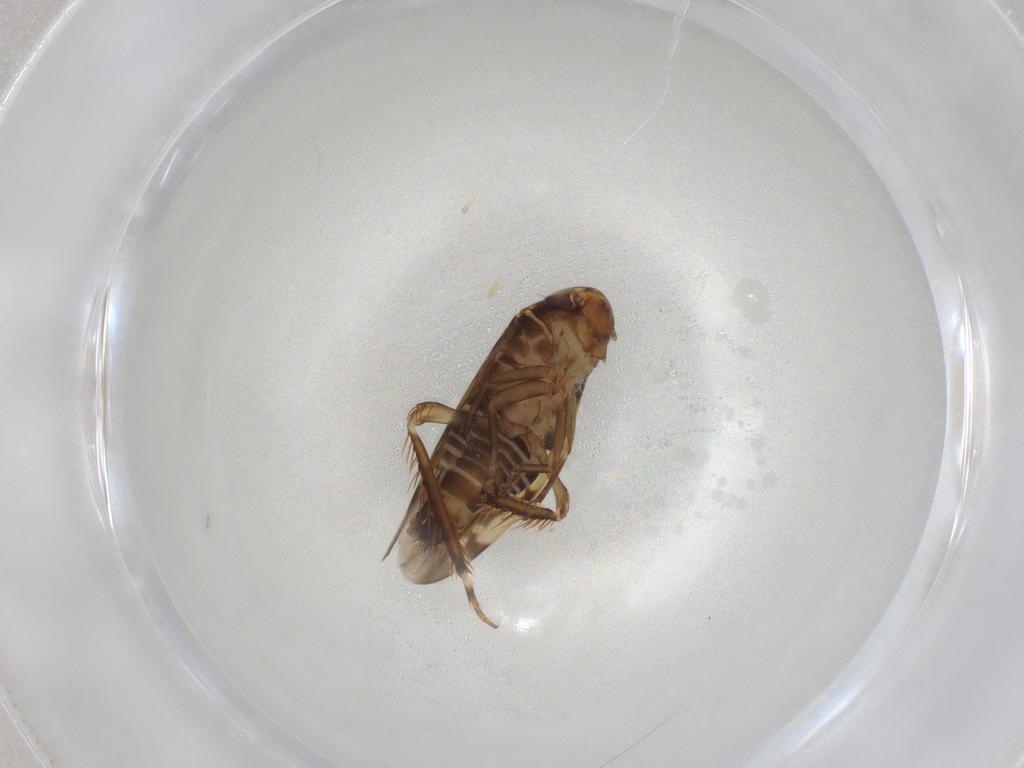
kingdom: Animalia
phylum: Arthropoda
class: Insecta
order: Hemiptera
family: Cicadellidae
